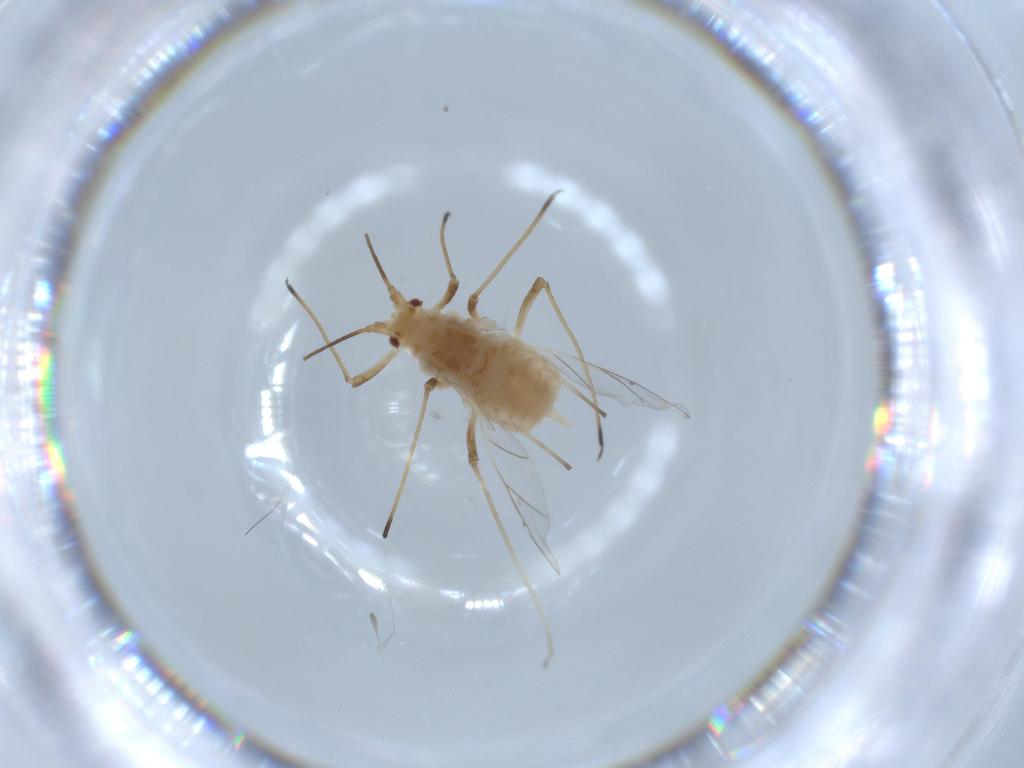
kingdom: Animalia
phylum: Arthropoda
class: Insecta
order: Hemiptera
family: Aphididae
